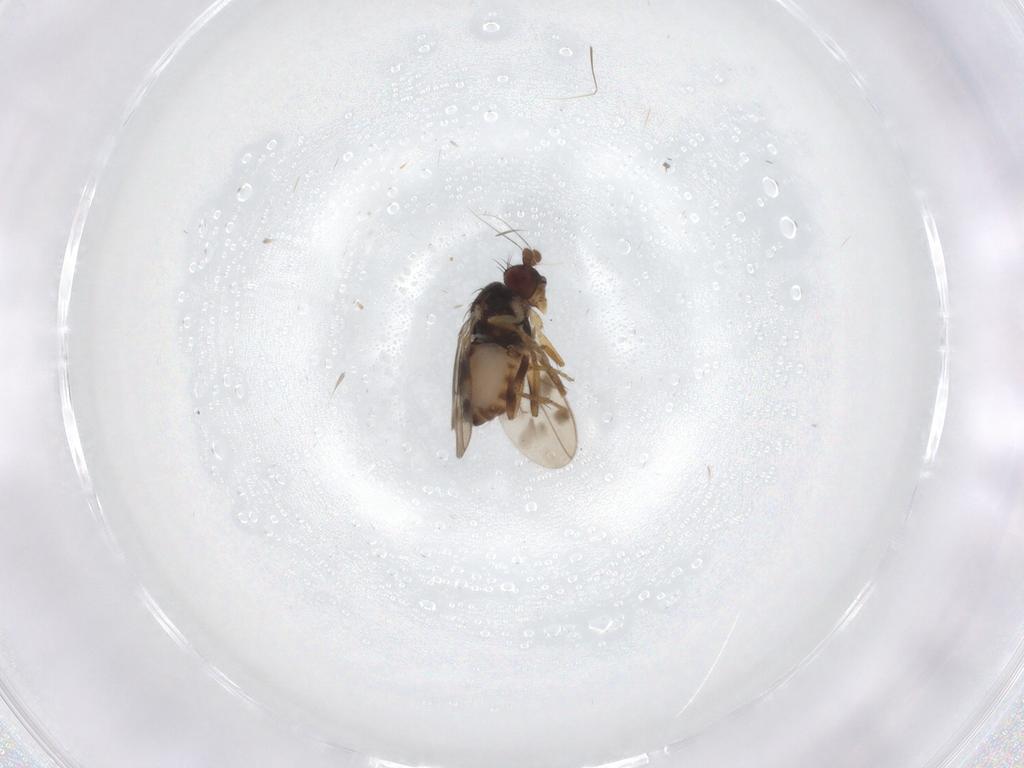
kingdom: Animalia
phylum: Arthropoda
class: Insecta
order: Diptera
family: Sphaeroceridae
